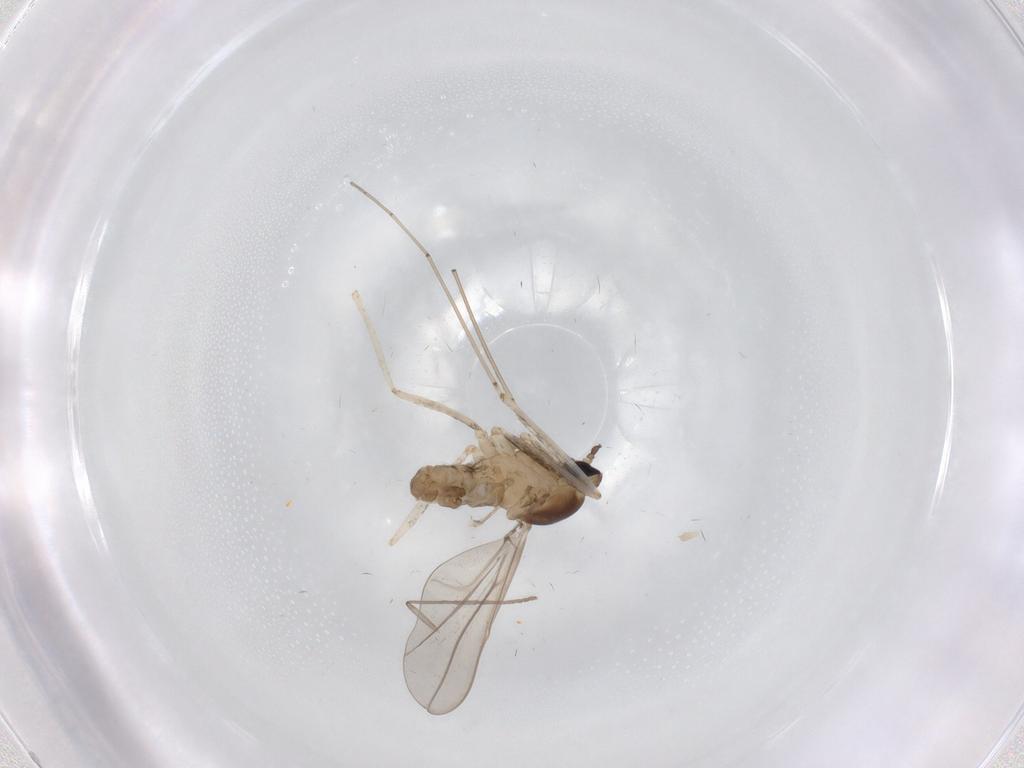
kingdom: Animalia
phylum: Arthropoda
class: Insecta
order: Diptera
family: Cecidomyiidae
